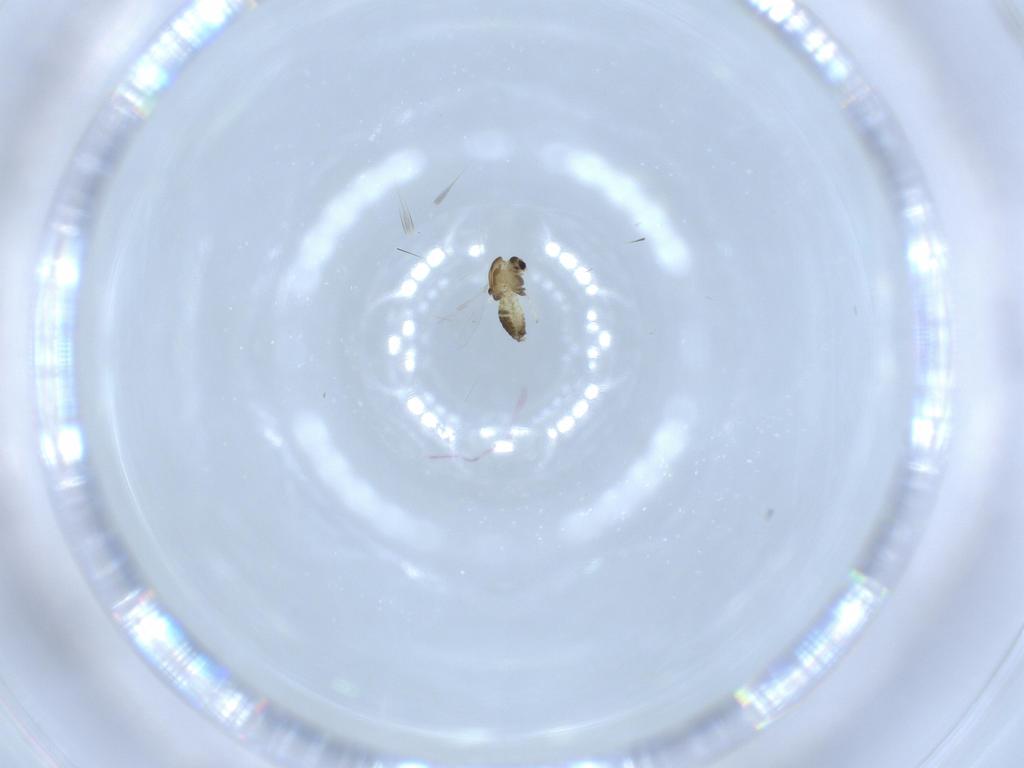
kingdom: Animalia
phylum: Arthropoda
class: Insecta
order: Diptera
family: Chironomidae
